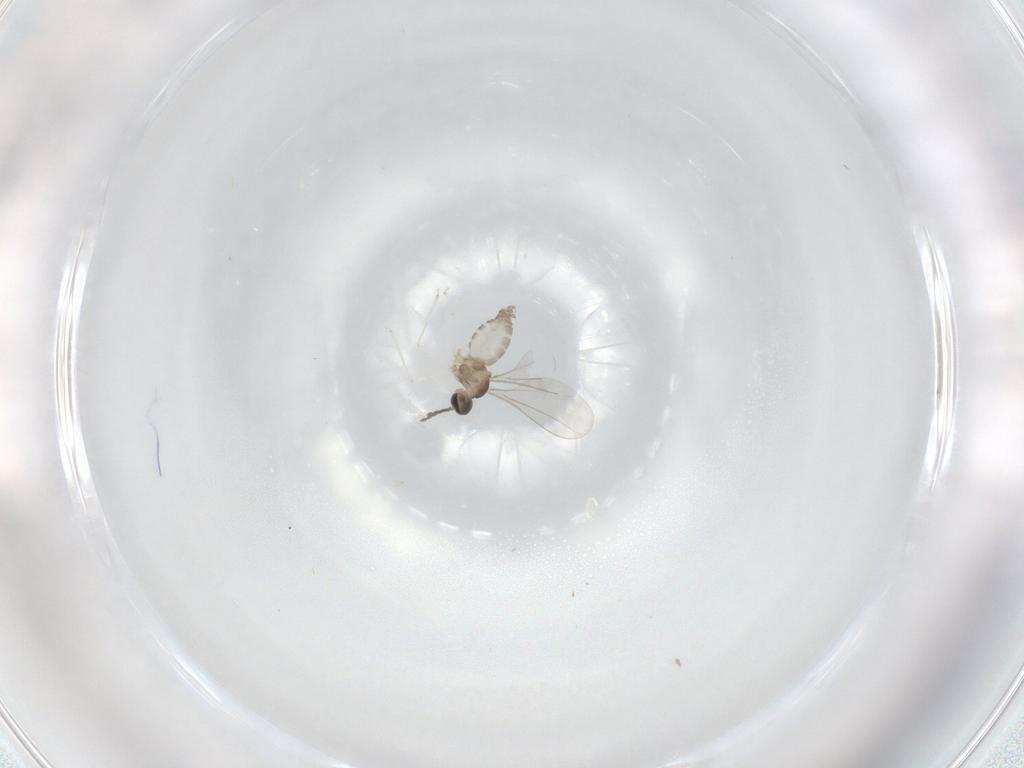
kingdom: Animalia
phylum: Arthropoda
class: Insecta
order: Diptera
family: Cecidomyiidae
